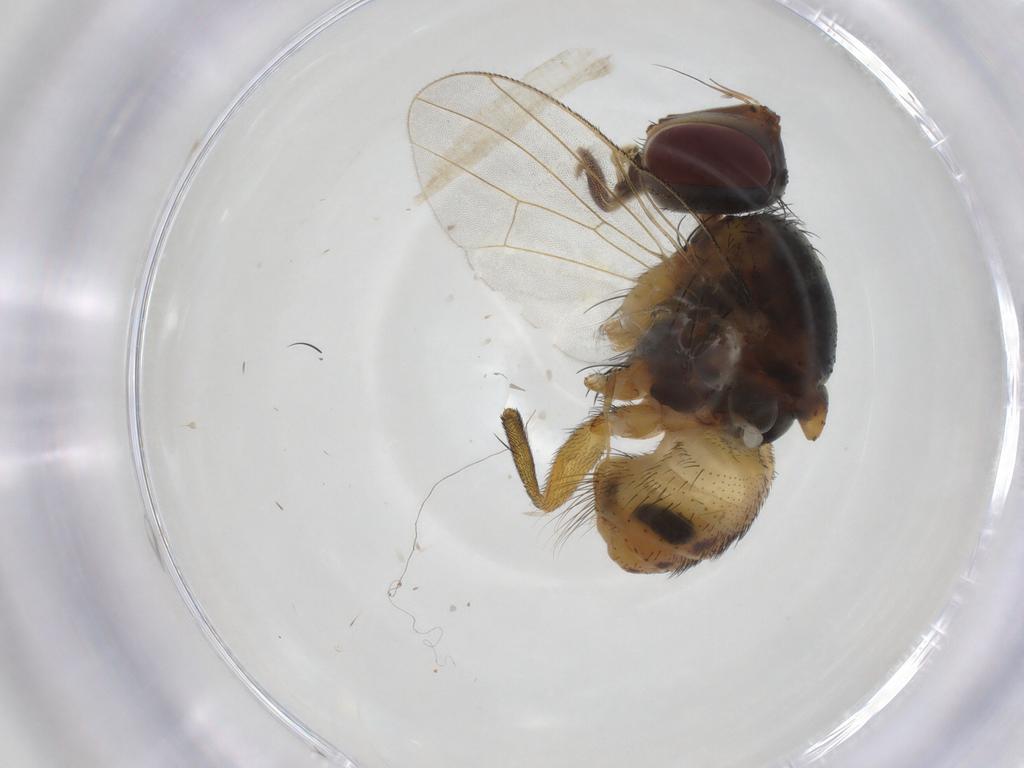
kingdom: Animalia
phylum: Arthropoda
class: Insecta
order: Diptera
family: Muscidae
